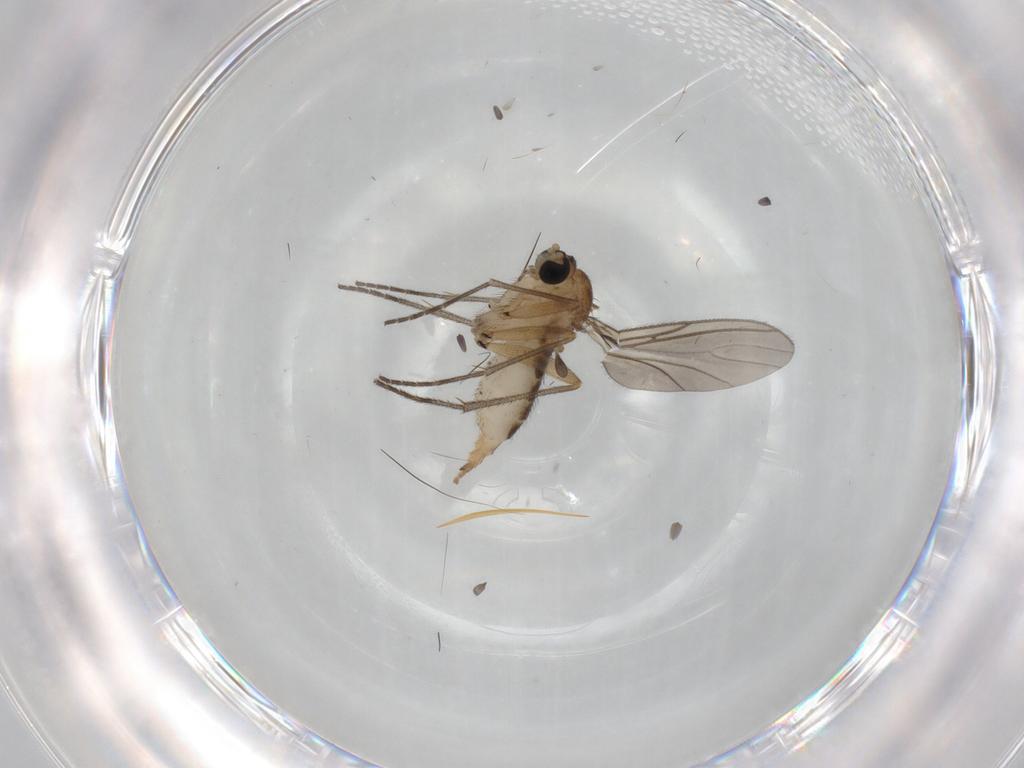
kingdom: Animalia
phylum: Arthropoda
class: Insecta
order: Diptera
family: Sciaridae
